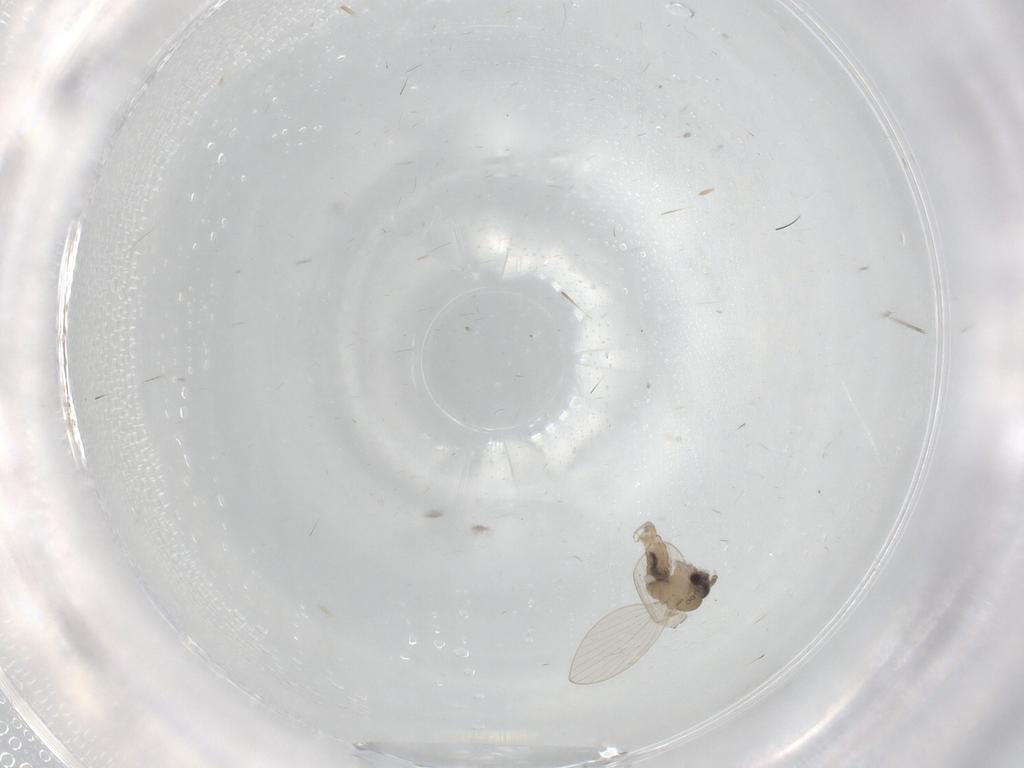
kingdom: Animalia
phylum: Arthropoda
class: Insecta
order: Diptera
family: Psychodidae
